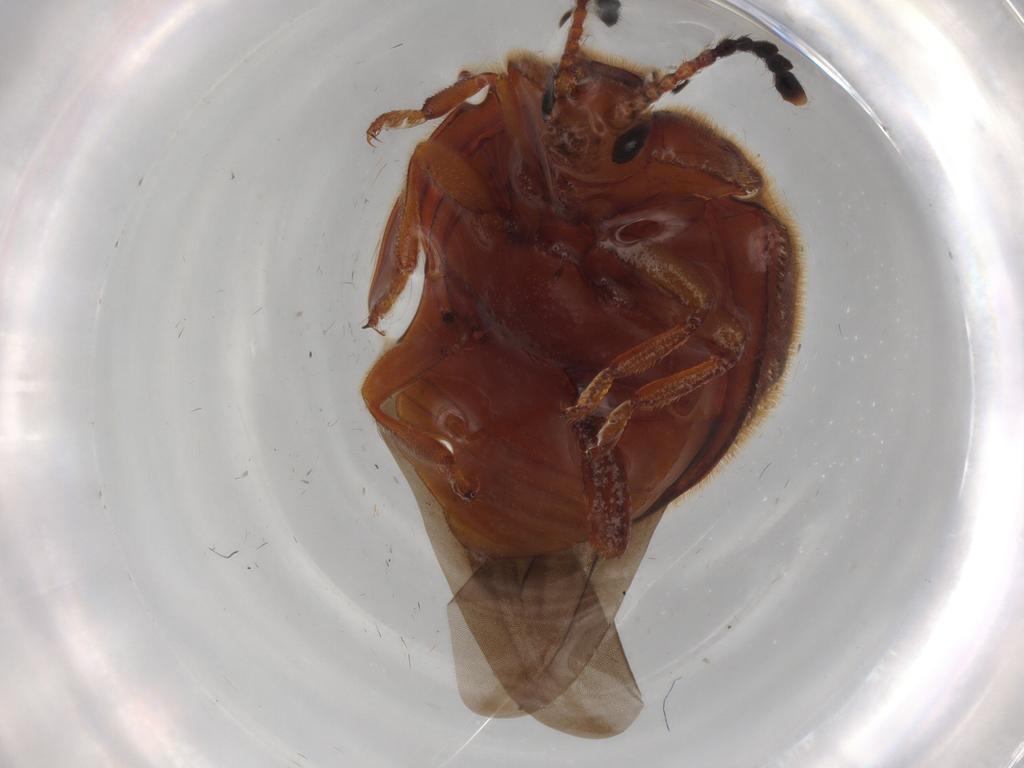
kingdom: Animalia
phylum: Arthropoda
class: Insecta
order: Coleoptera
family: Endomychidae
